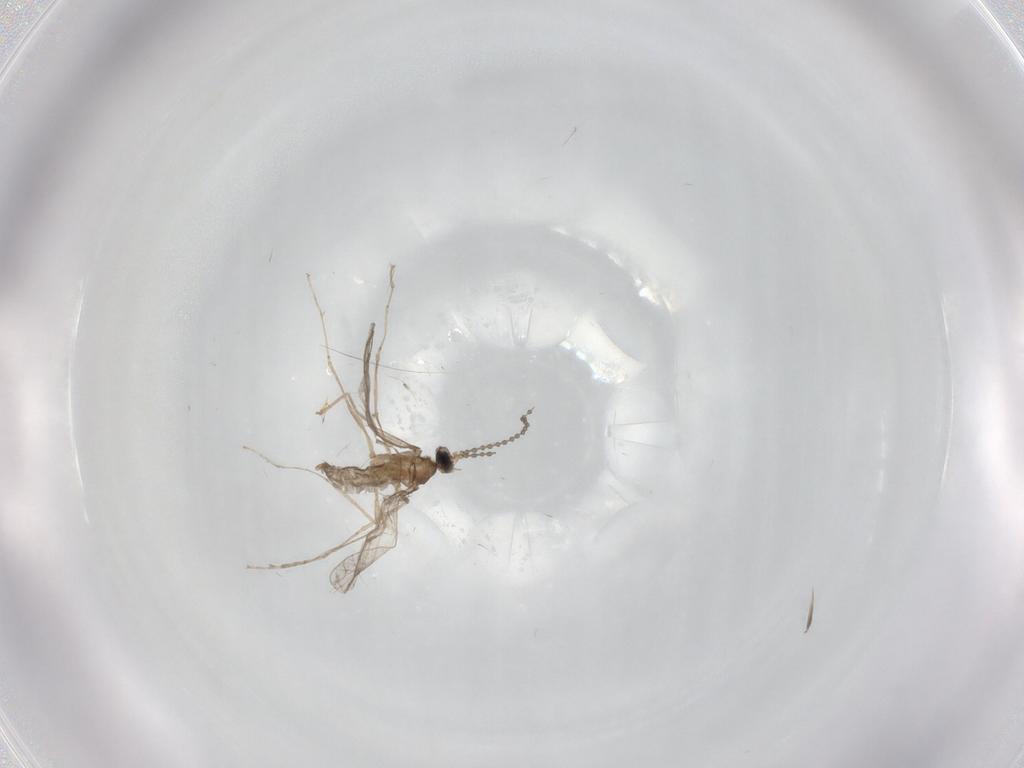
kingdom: Animalia
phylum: Arthropoda
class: Insecta
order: Diptera
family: Cecidomyiidae
